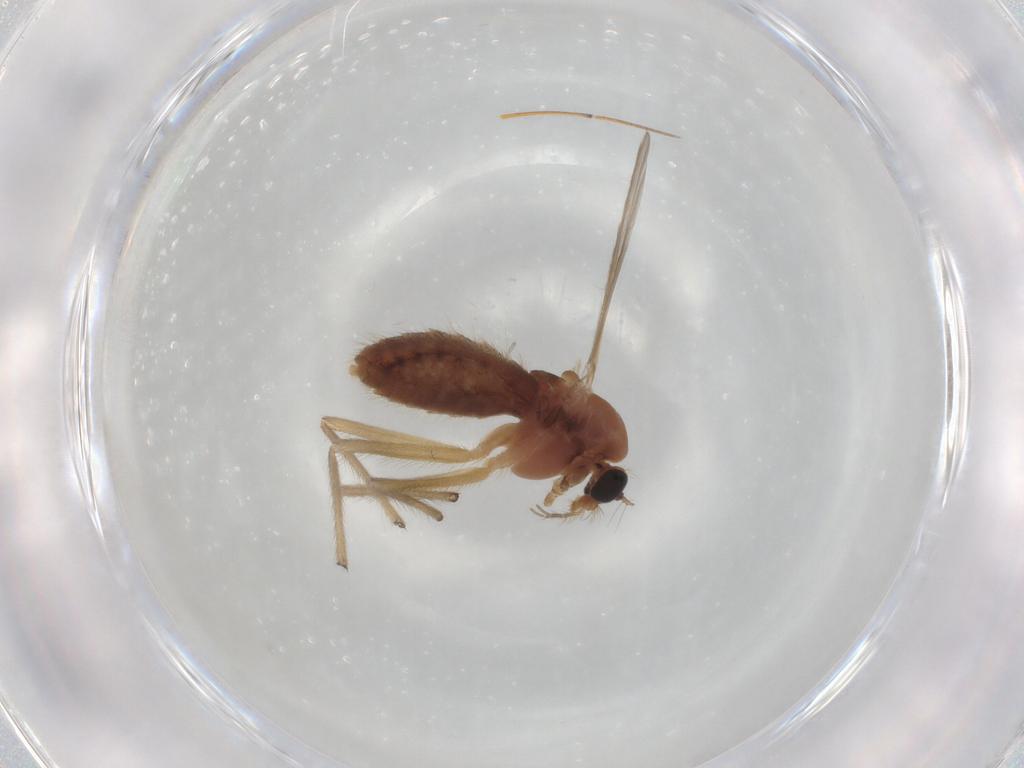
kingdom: Animalia
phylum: Arthropoda
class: Insecta
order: Diptera
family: Chironomidae
